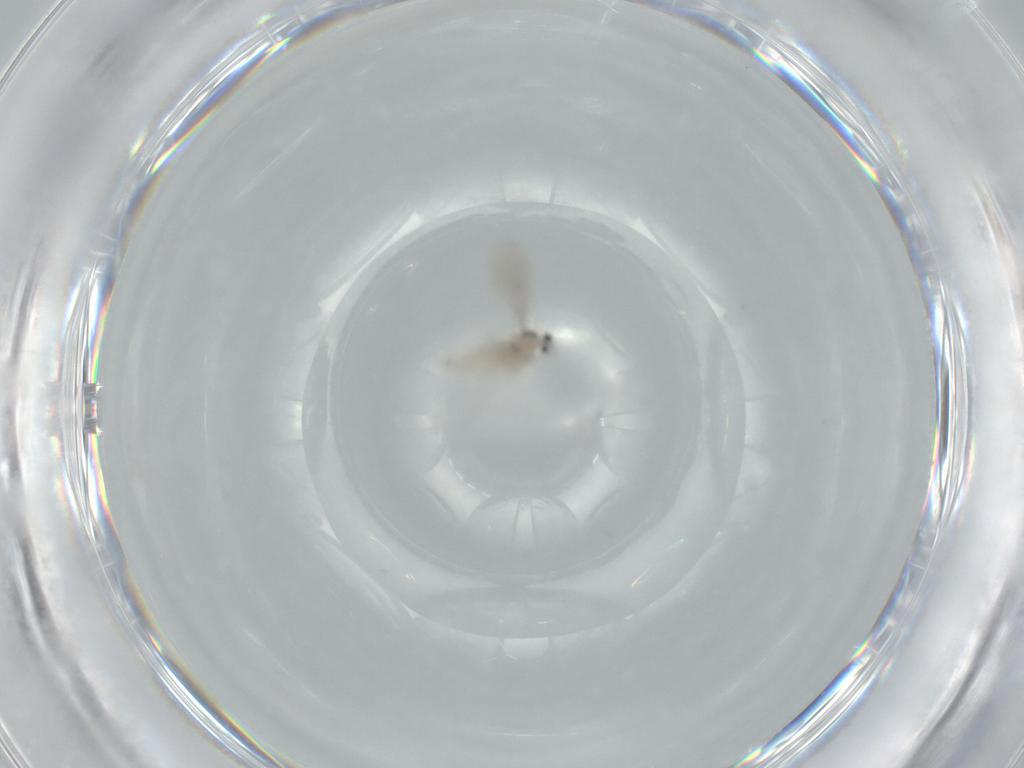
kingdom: Animalia
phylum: Arthropoda
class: Insecta
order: Diptera
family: Cecidomyiidae
